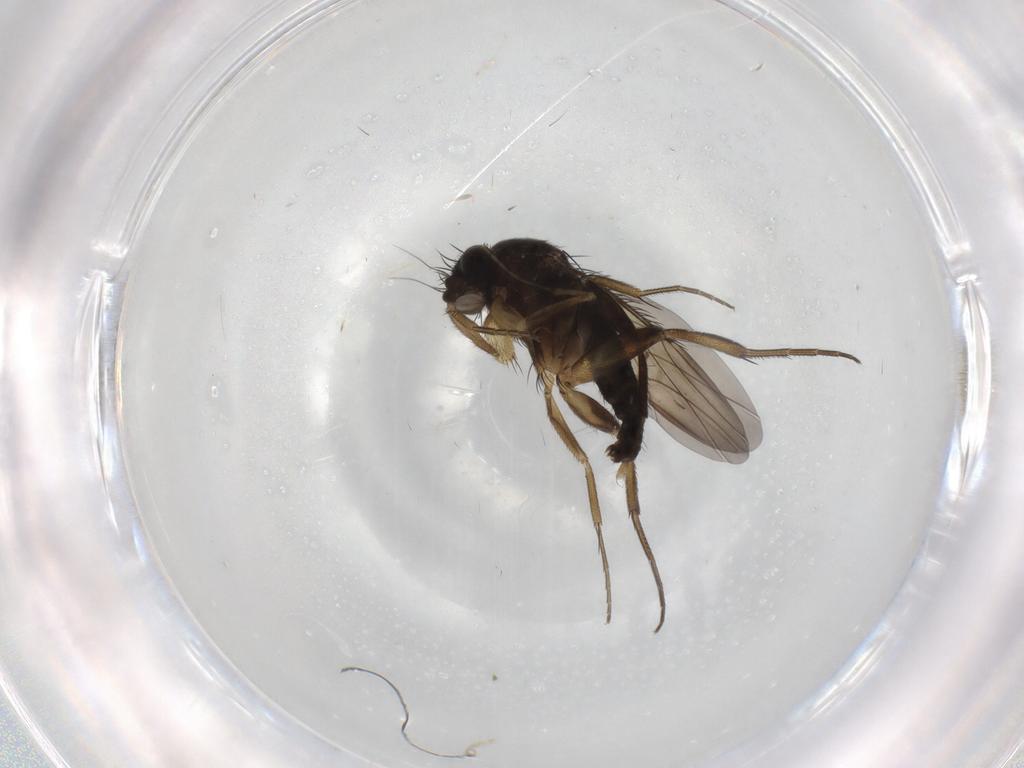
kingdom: Animalia
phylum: Arthropoda
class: Insecta
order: Diptera
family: Phoridae
